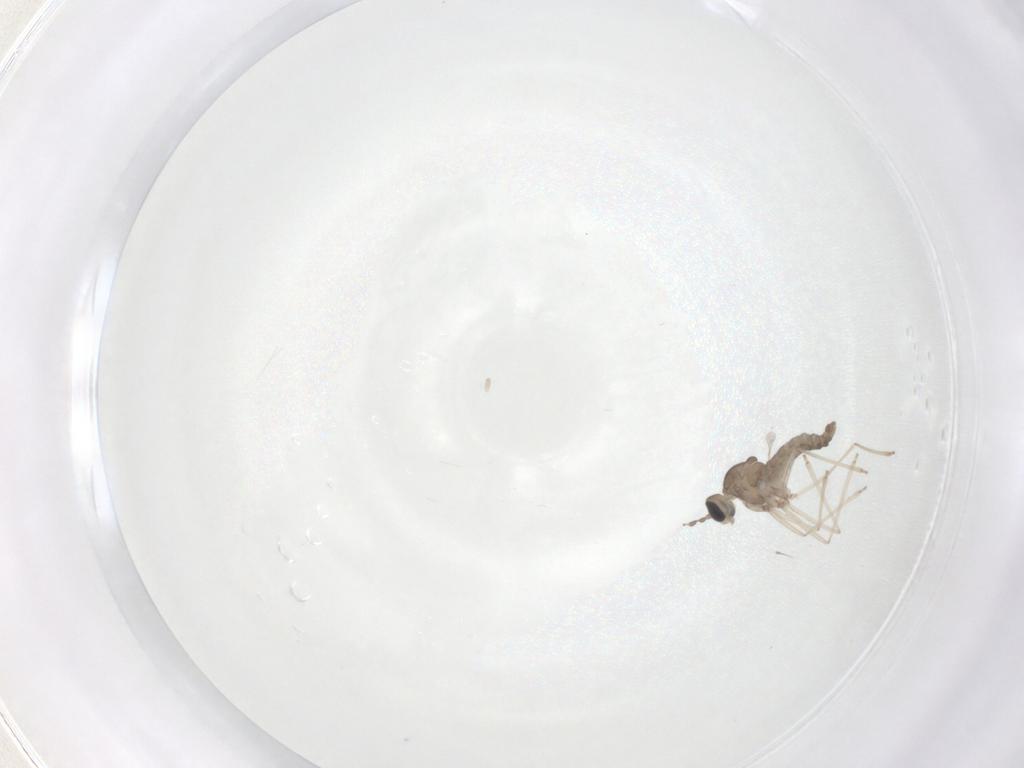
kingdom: Animalia
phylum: Arthropoda
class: Insecta
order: Diptera
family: Cecidomyiidae
